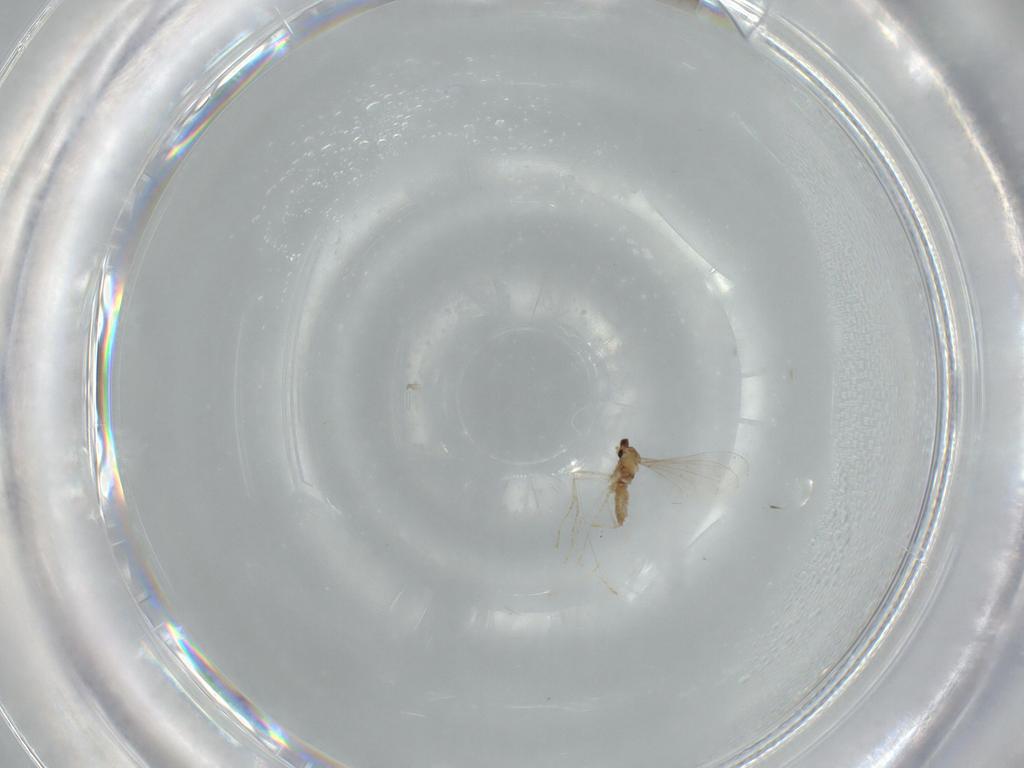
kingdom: Animalia
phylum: Arthropoda
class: Insecta
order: Diptera
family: Cecidomyiidae
